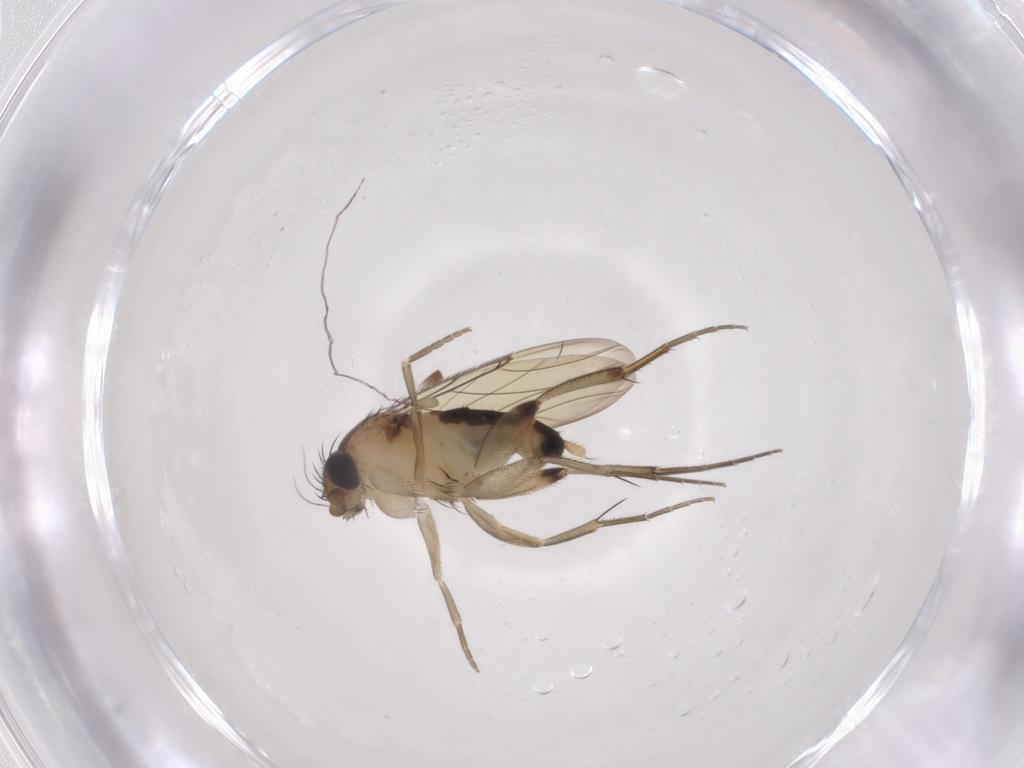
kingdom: Animalia
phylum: Arthropoda
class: Insecta
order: Diptera
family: Phoridae
